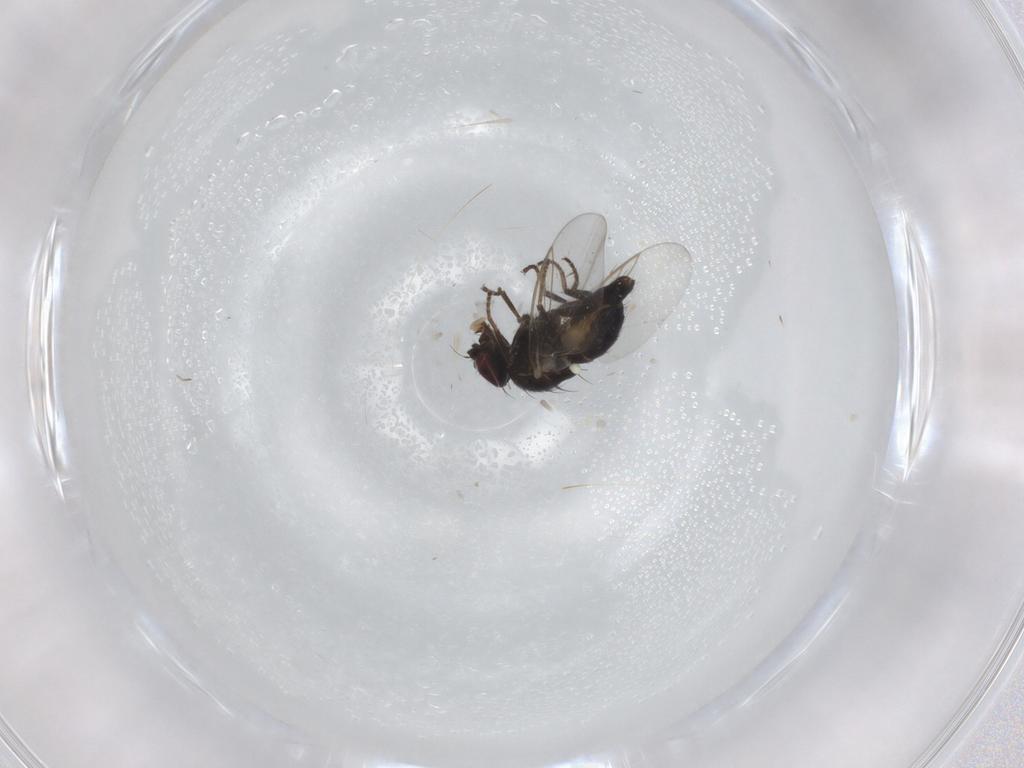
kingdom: Animalia
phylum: Arthropoda
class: Insecta
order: Diptera
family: Agromyzidae
